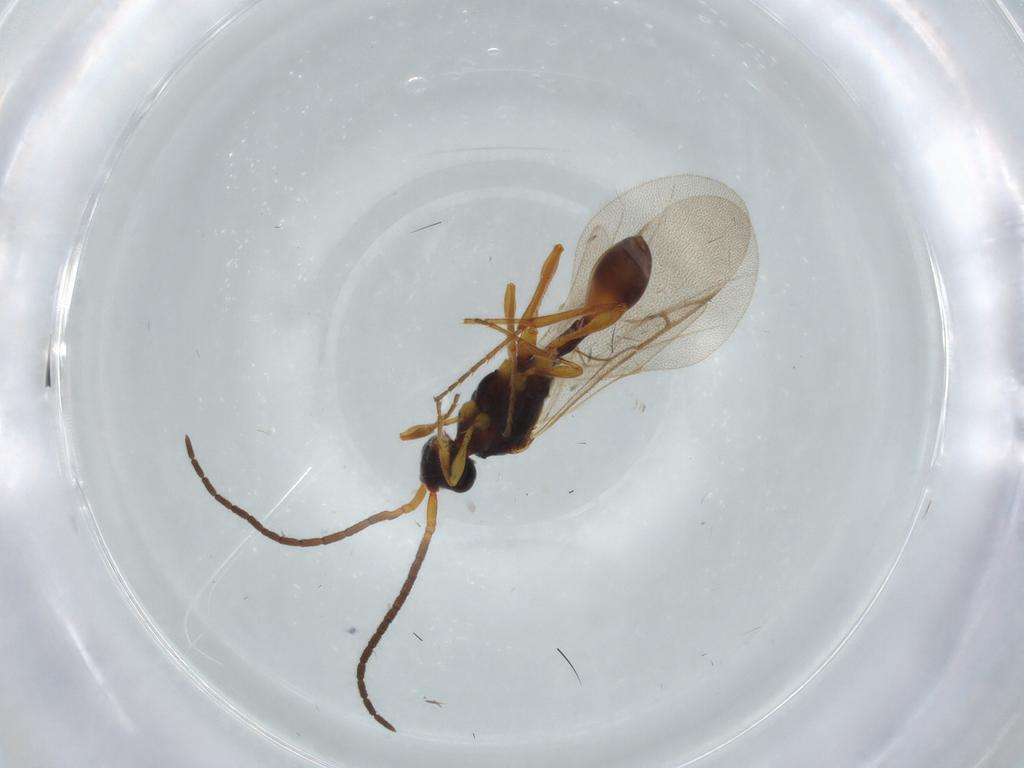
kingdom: Animalia
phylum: Arthropoda
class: Insecta
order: Hymenoptera
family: Diapriidae
